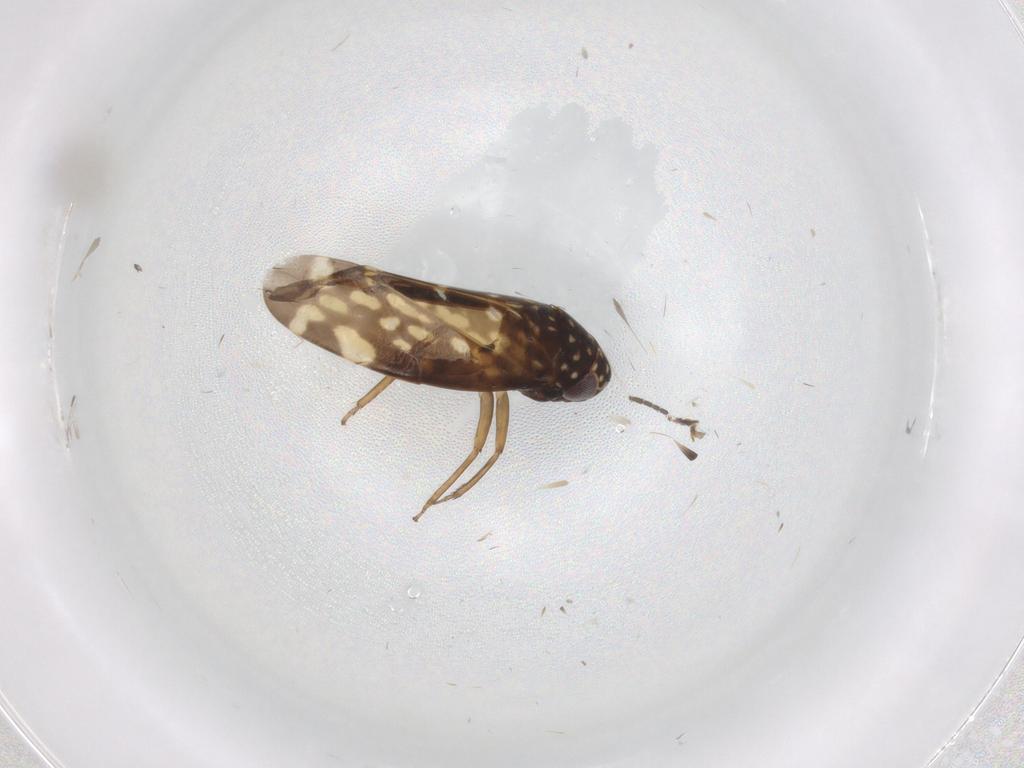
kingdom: Animalia
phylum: Arthropoda
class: Insecta
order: Hemiptera
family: Cicadellidae
